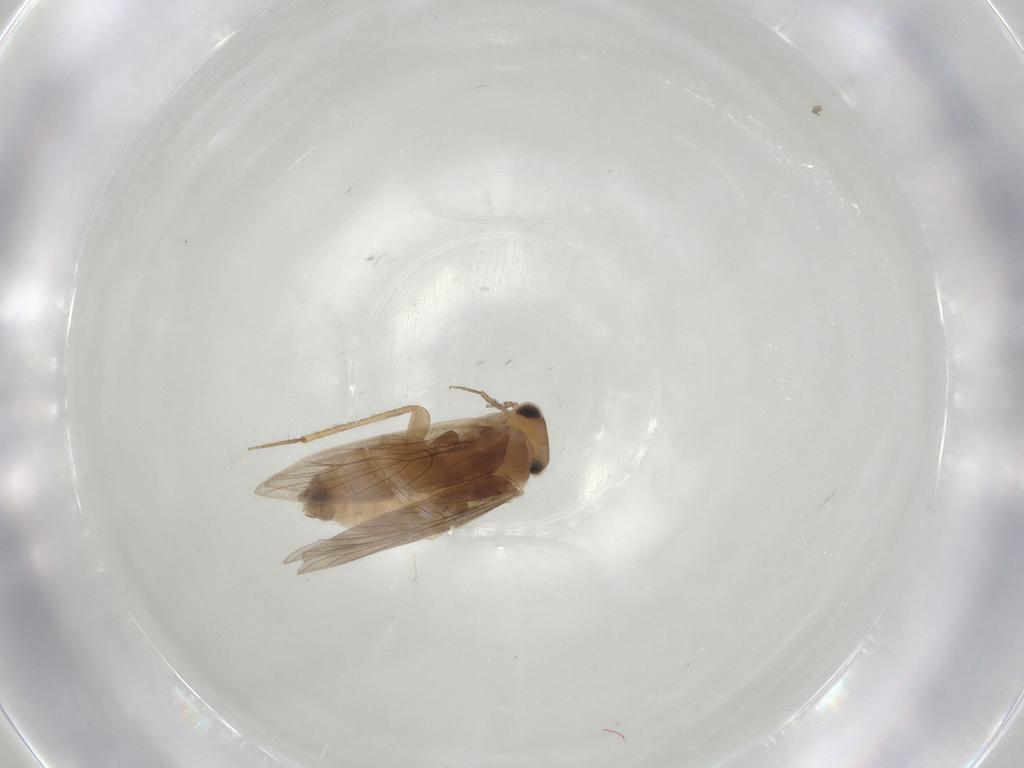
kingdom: Animalia
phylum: Arthropoda
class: Insecta
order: Psocodea
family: Lepidopsocidae
